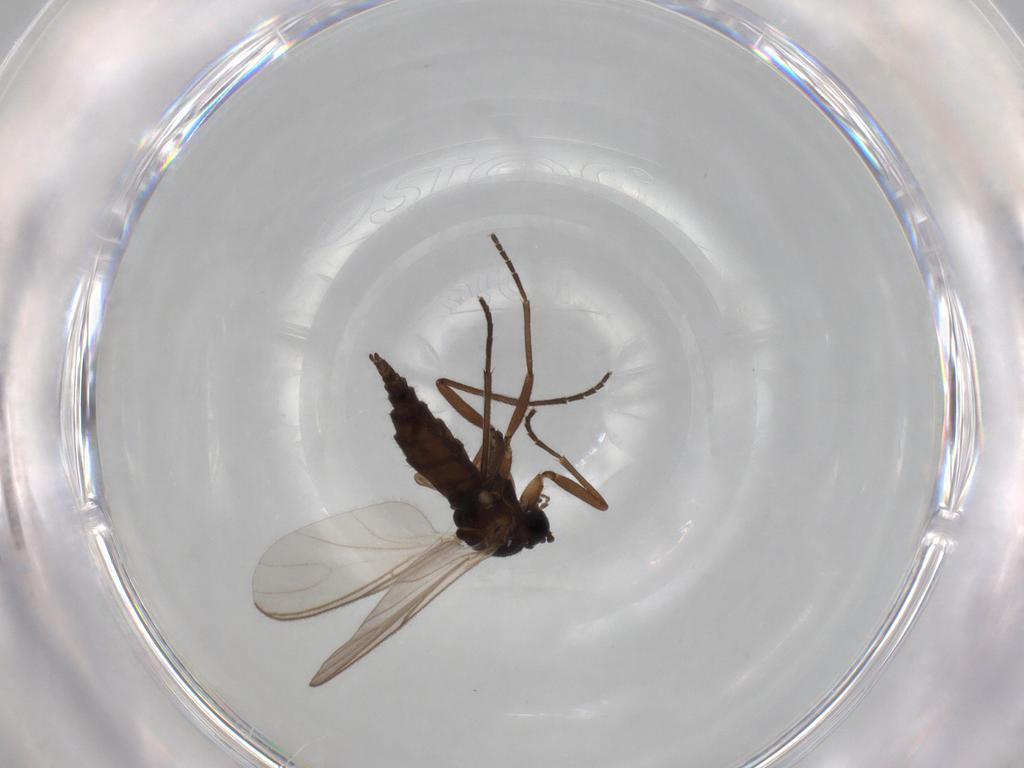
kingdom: Animalia
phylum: Arthropoda
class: Insecta
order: Diptera
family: Sciaridae
